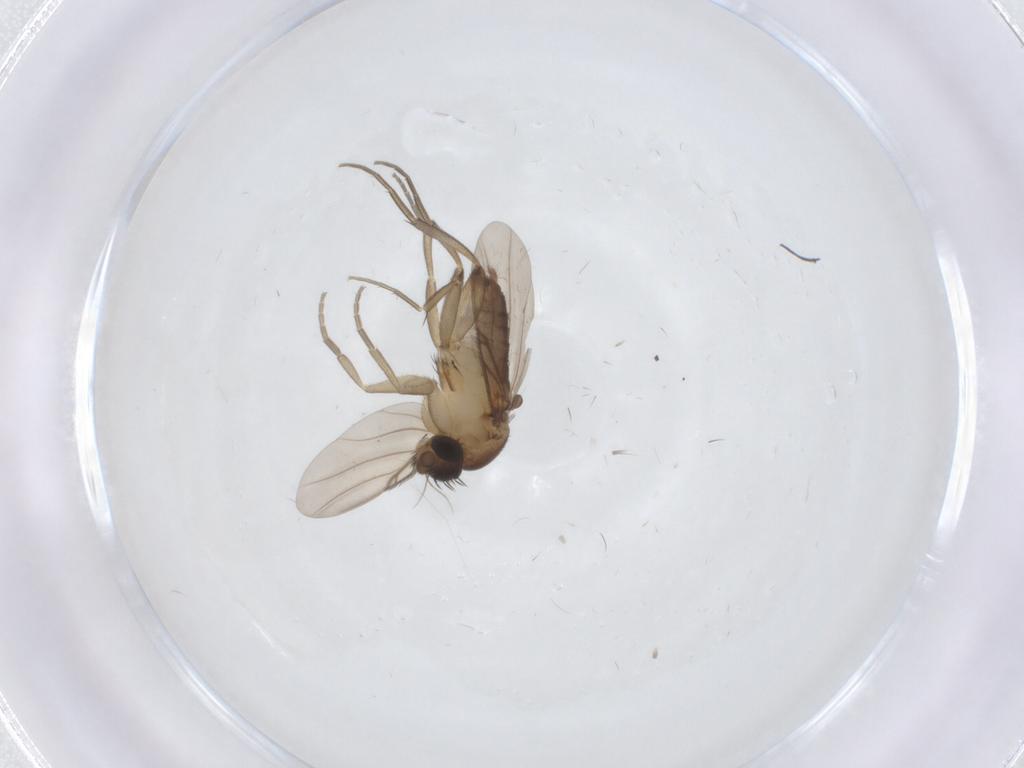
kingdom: Animalia
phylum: Arthropoda
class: Insecta
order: Diptera
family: Phoridae
